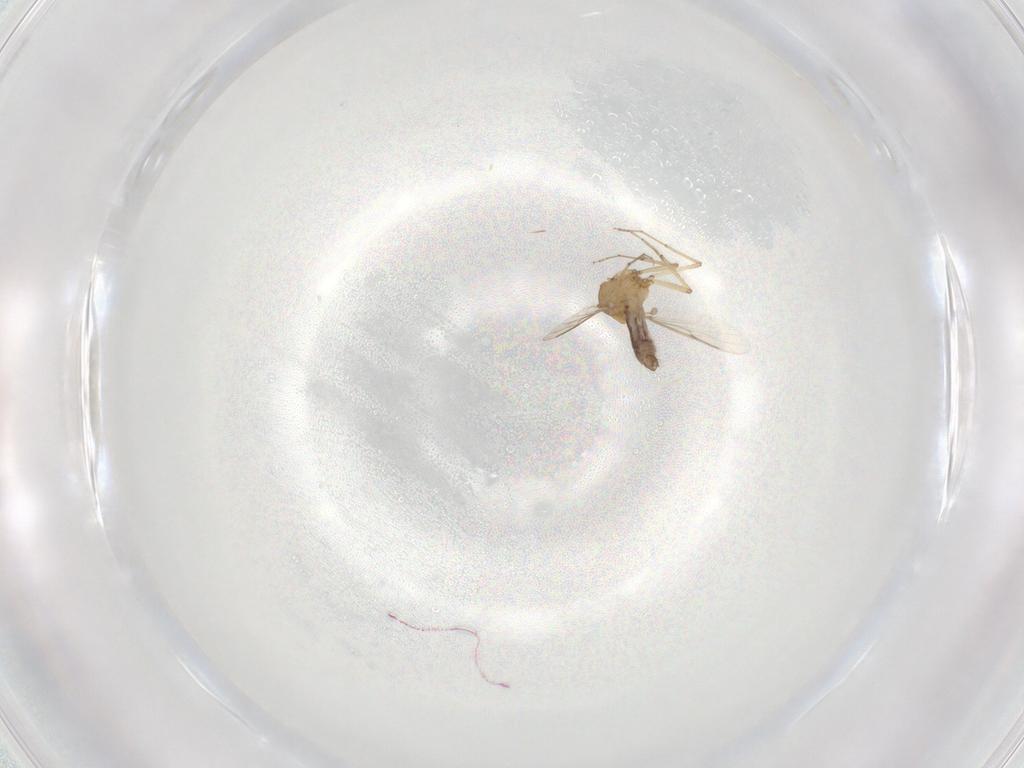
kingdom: Animalia
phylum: Arthropoda
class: Insecta
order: Diptera
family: Ceratopogonidae
